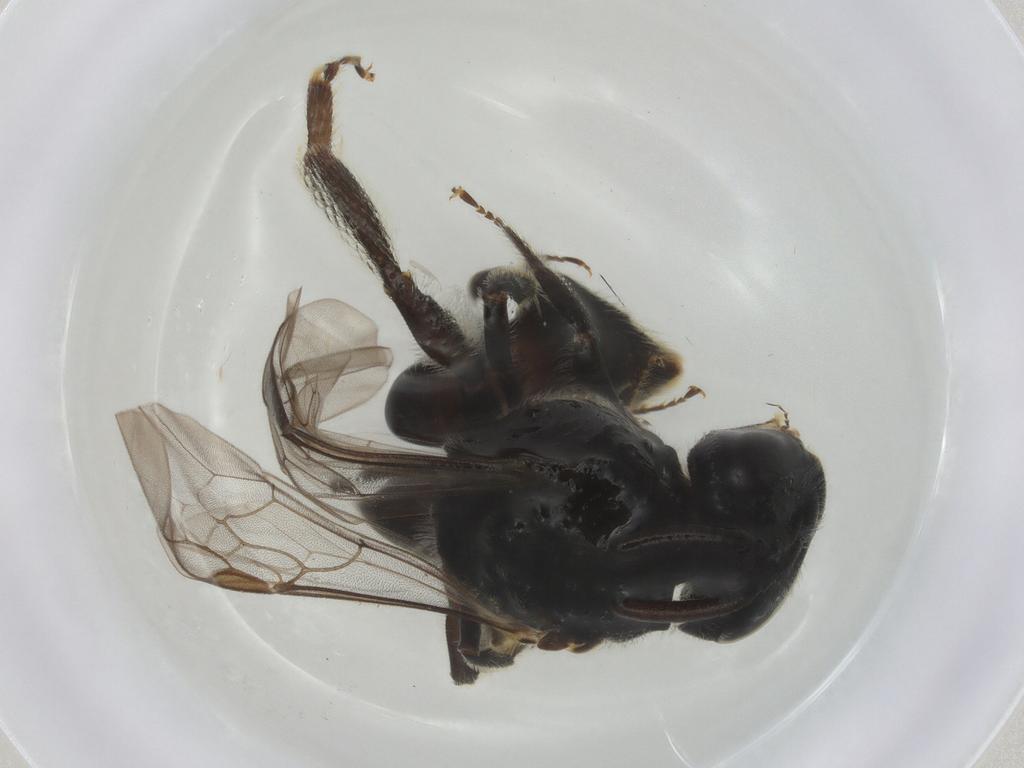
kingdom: Animalia
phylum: Arthropoda
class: Insecta
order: Hymenoptera
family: Halictidae
